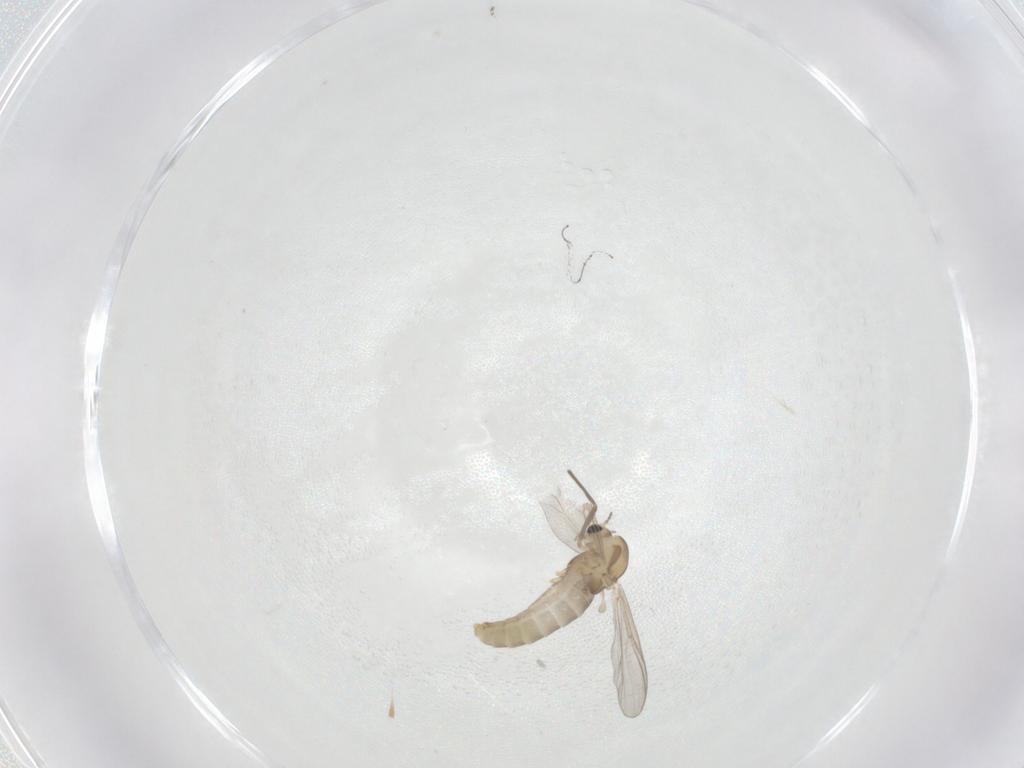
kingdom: Animalia
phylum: Arthropoda
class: Insecta
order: Diptera
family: Chironomidae
